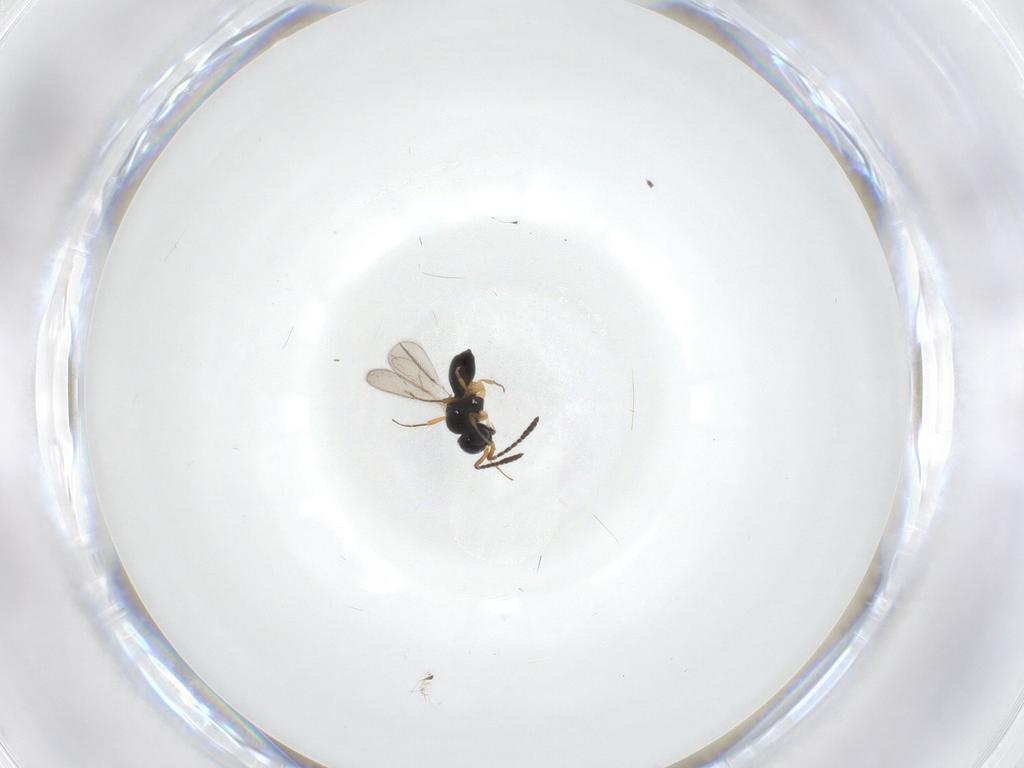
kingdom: Animalia
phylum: Arthropoda
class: Insecta
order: Hymenoptera
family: Scelionidae
